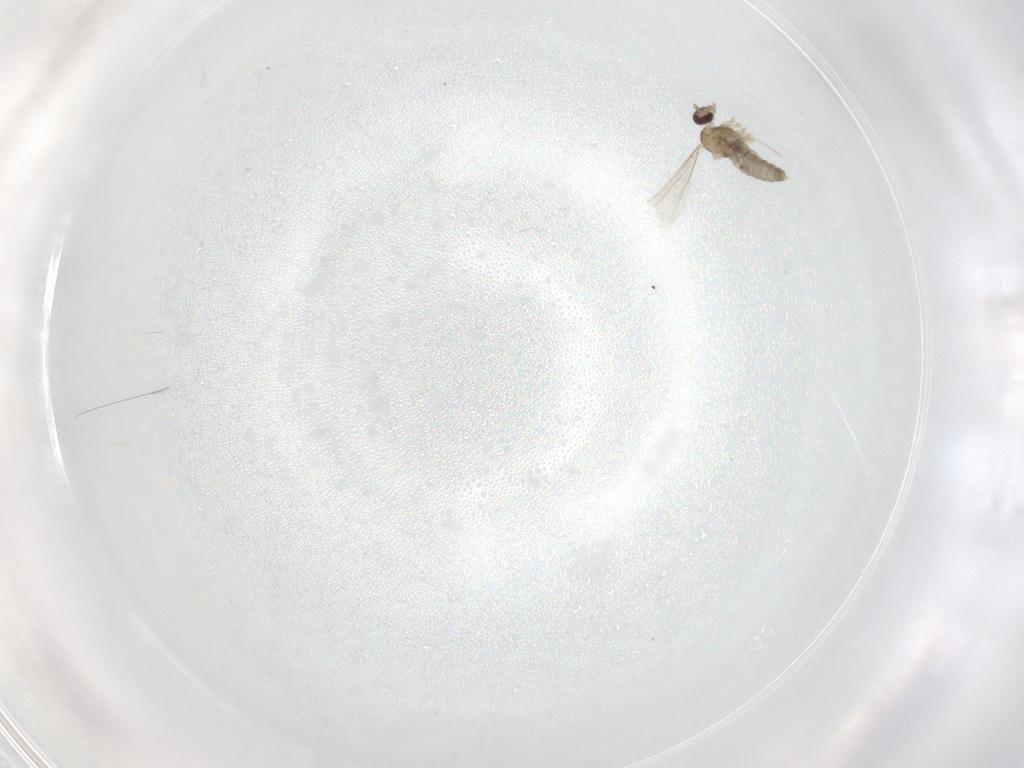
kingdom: Animalia
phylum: Arthropoda
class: Insecta
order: Diptera
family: Cecidomyiidae
